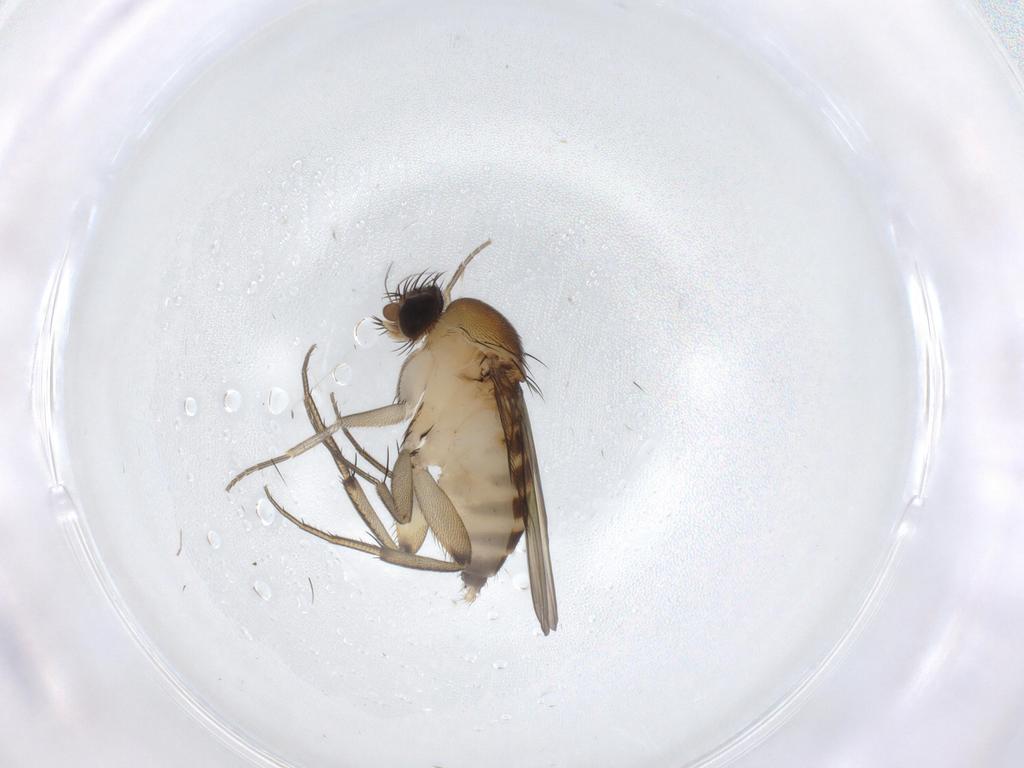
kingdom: Animalia
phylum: Arthropoda
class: Insecta
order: Diptera
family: Phoridae
